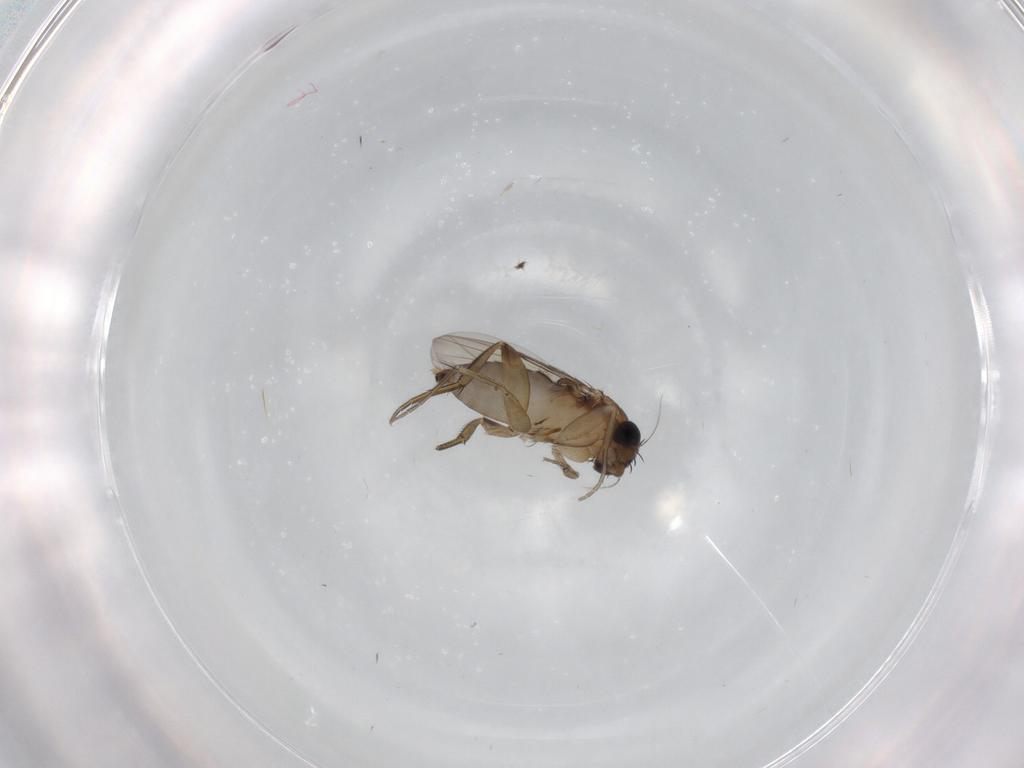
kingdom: Animalia
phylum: Arthropoda
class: Insecta
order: Diptera
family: Phoridae
